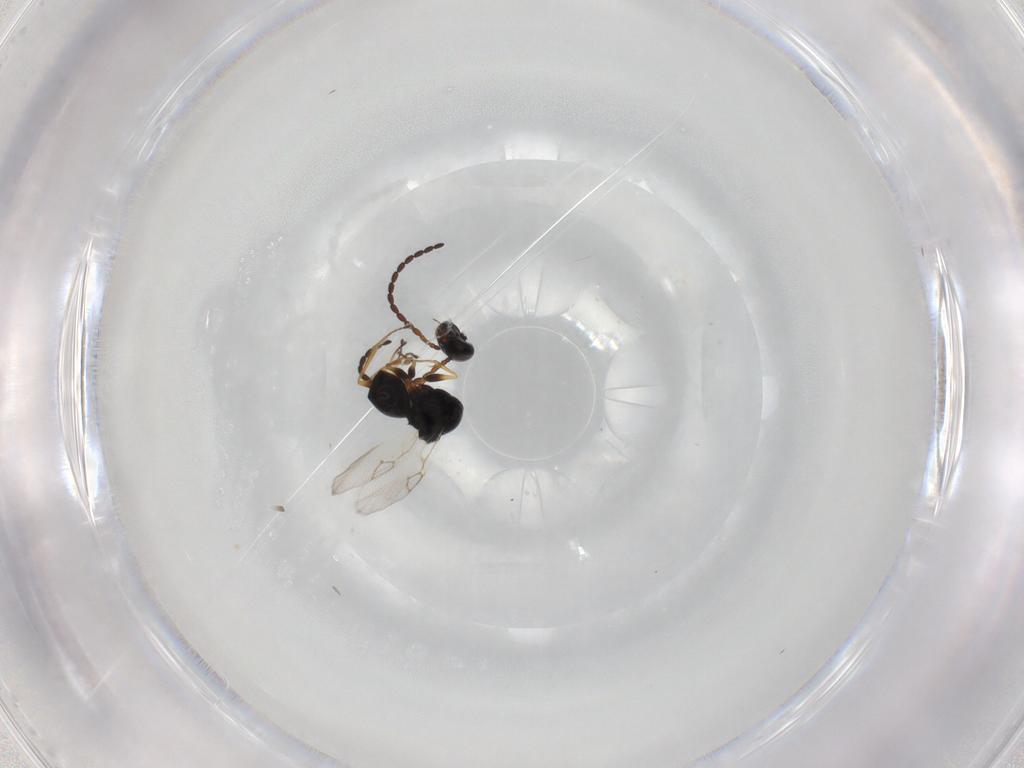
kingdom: Animalia
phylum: Arthropoda
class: Insecta
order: Hymenoptera
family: Figitidae
